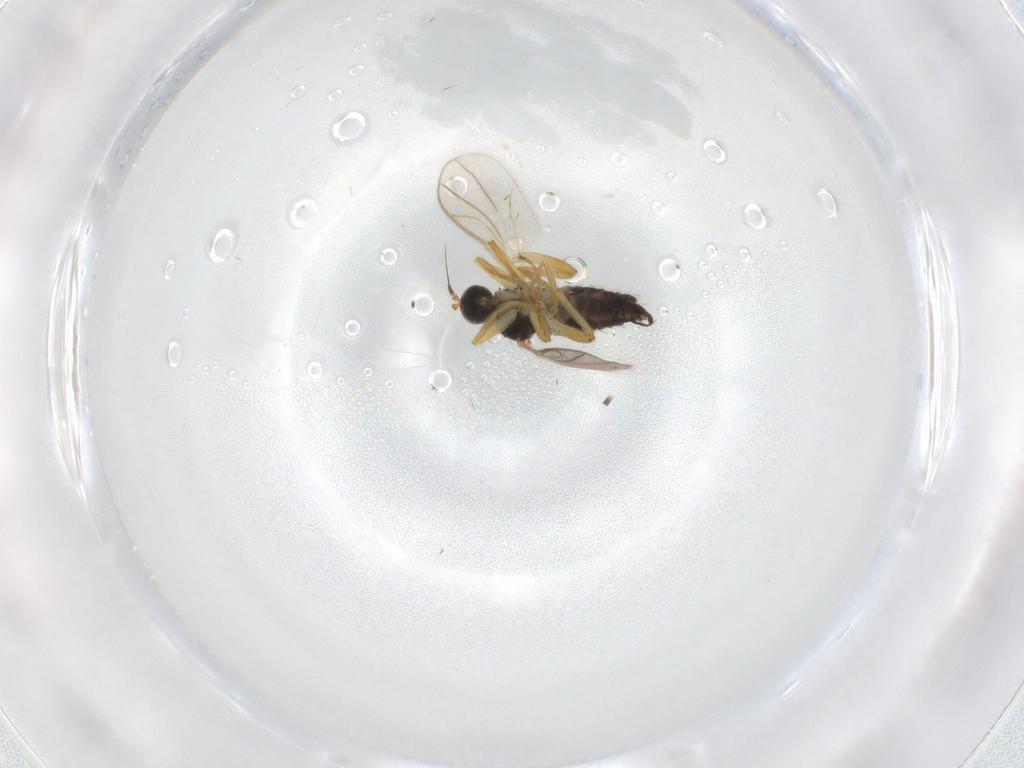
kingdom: Animalia
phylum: Arthropoda
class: Insecta
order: Diptera
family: Hybotidae
